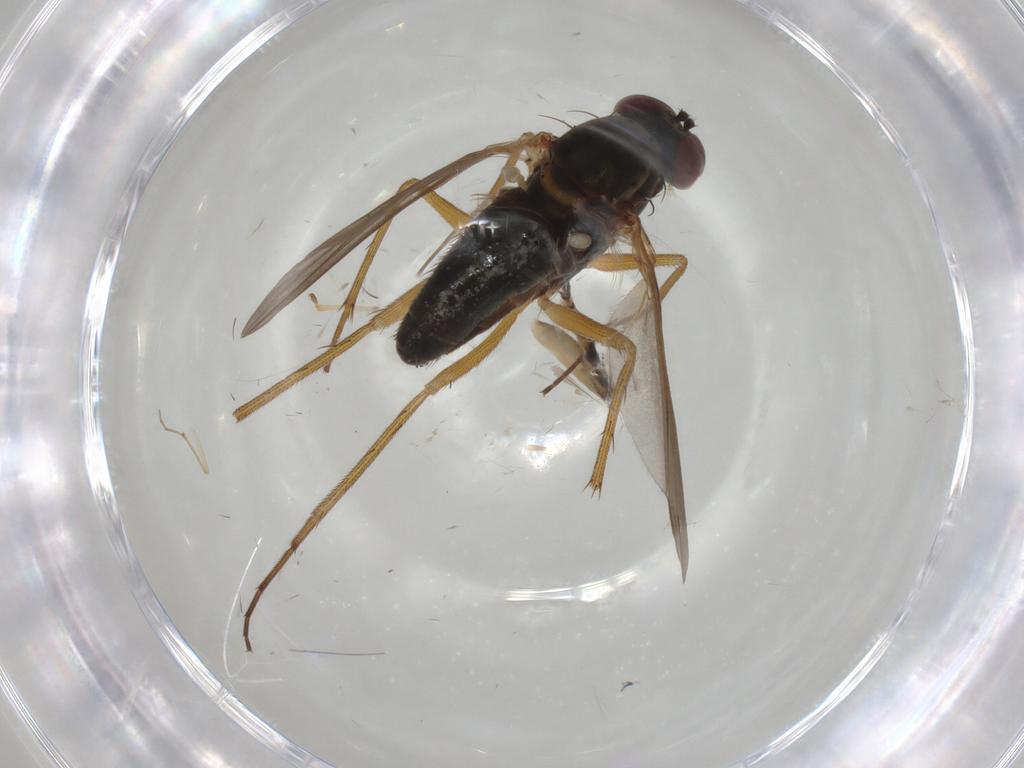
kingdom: Animalia
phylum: Arthropoda
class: Insecta
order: Diptera
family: Dolichopodidae
